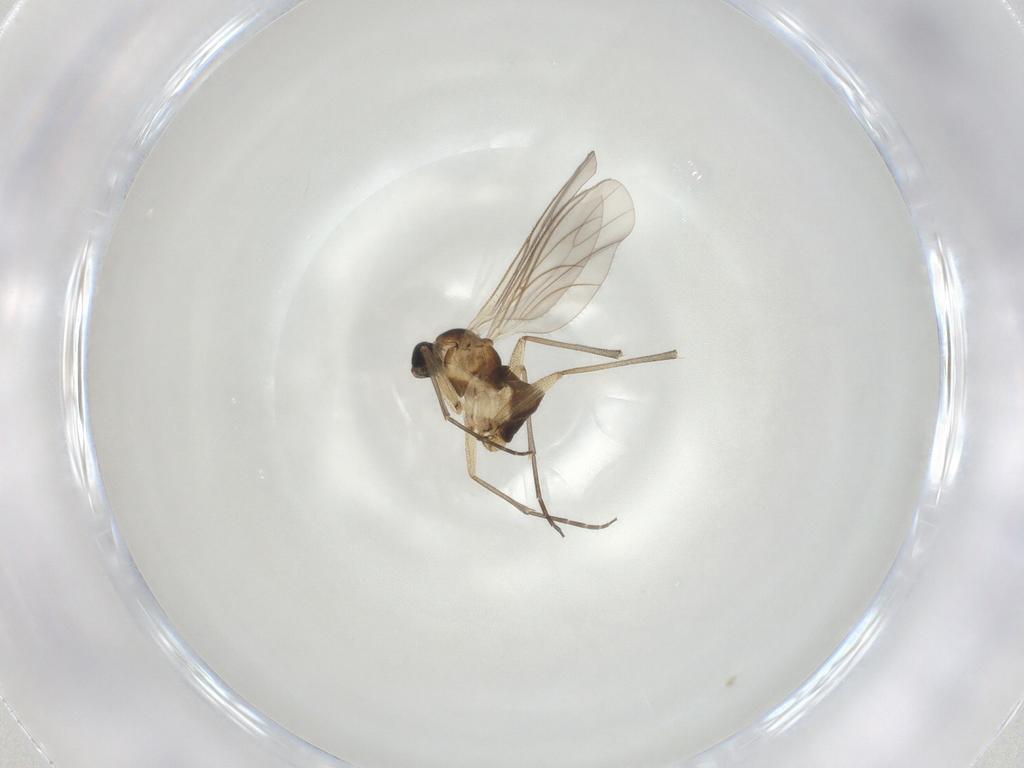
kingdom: Animalia
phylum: Arthropoda
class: Insecta
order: Diptera
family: Sciaridae
